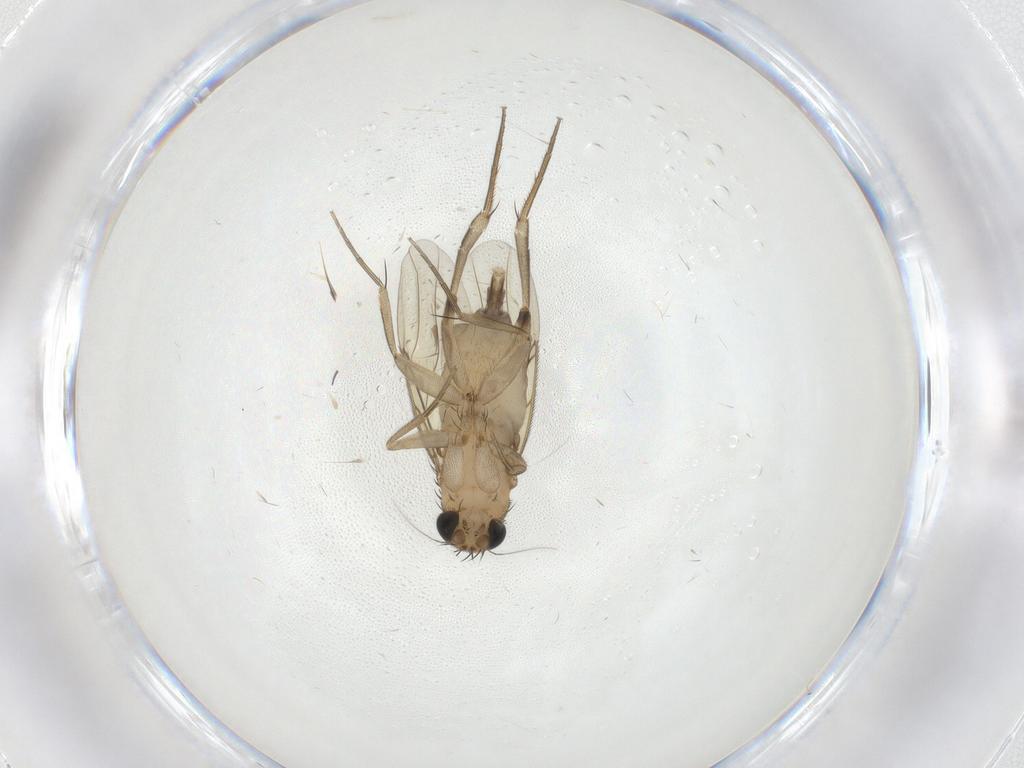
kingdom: Animalia
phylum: Arthropoda
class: Insecta
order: Diptera
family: Phoridae
